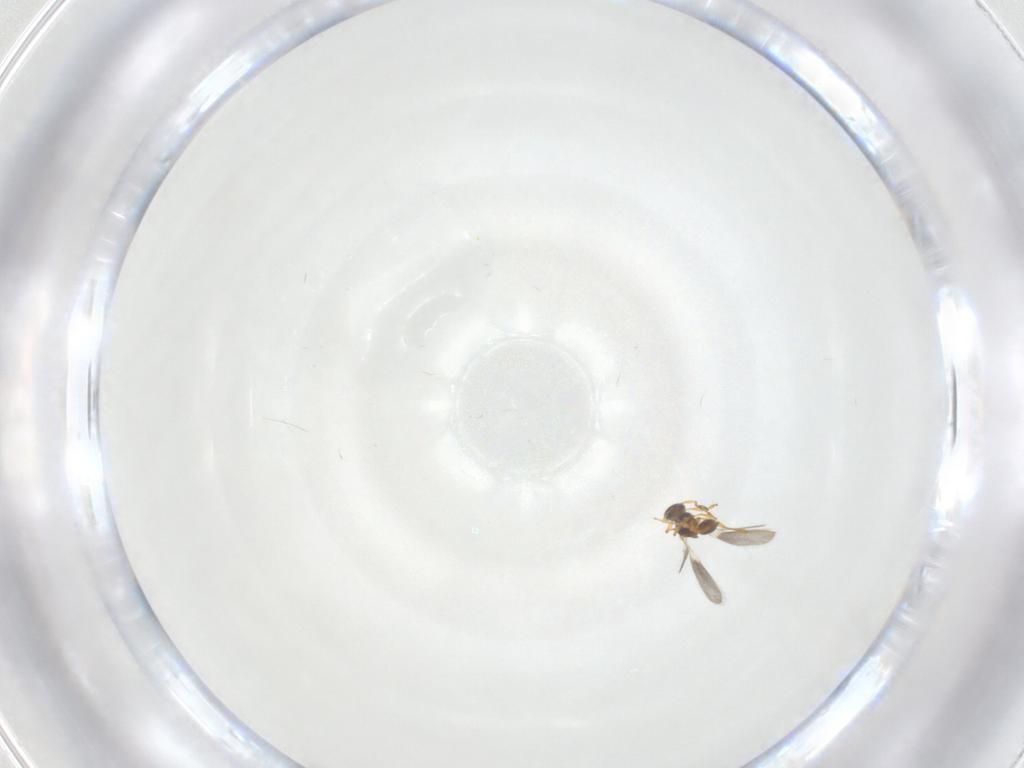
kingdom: Animalia
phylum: Arthropoda
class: Insecta
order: Hymenoptera
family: Platygastridae
